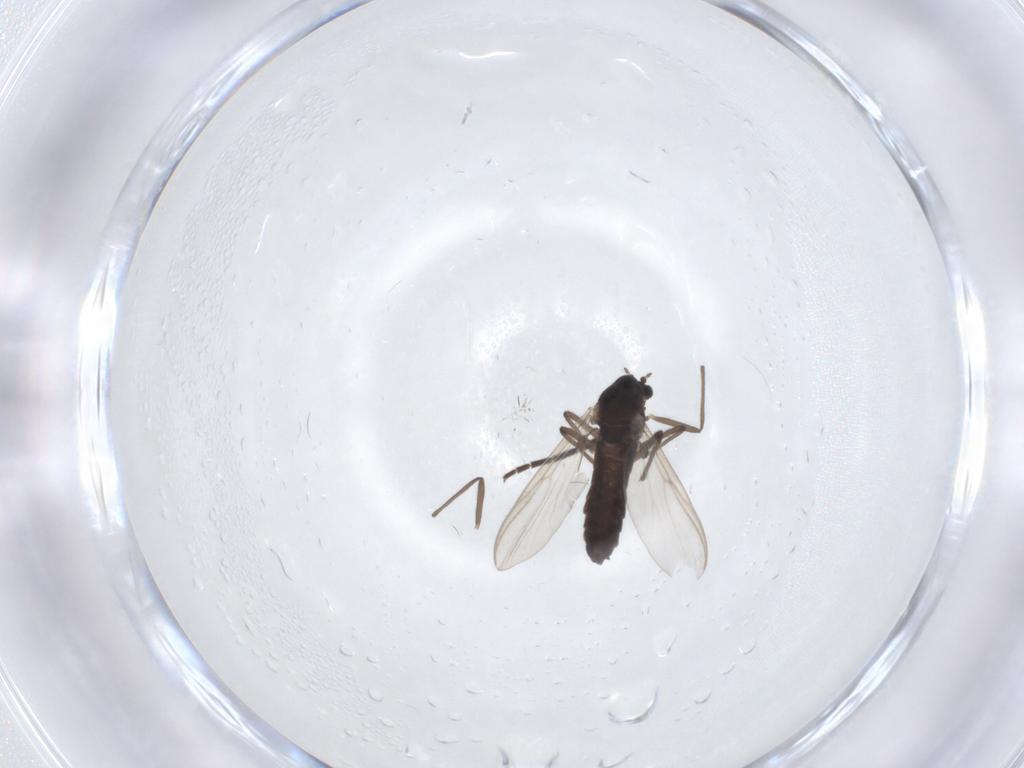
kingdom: Animalia
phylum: Arthropoda
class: Insecta
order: Diptera
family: Sciaridae
